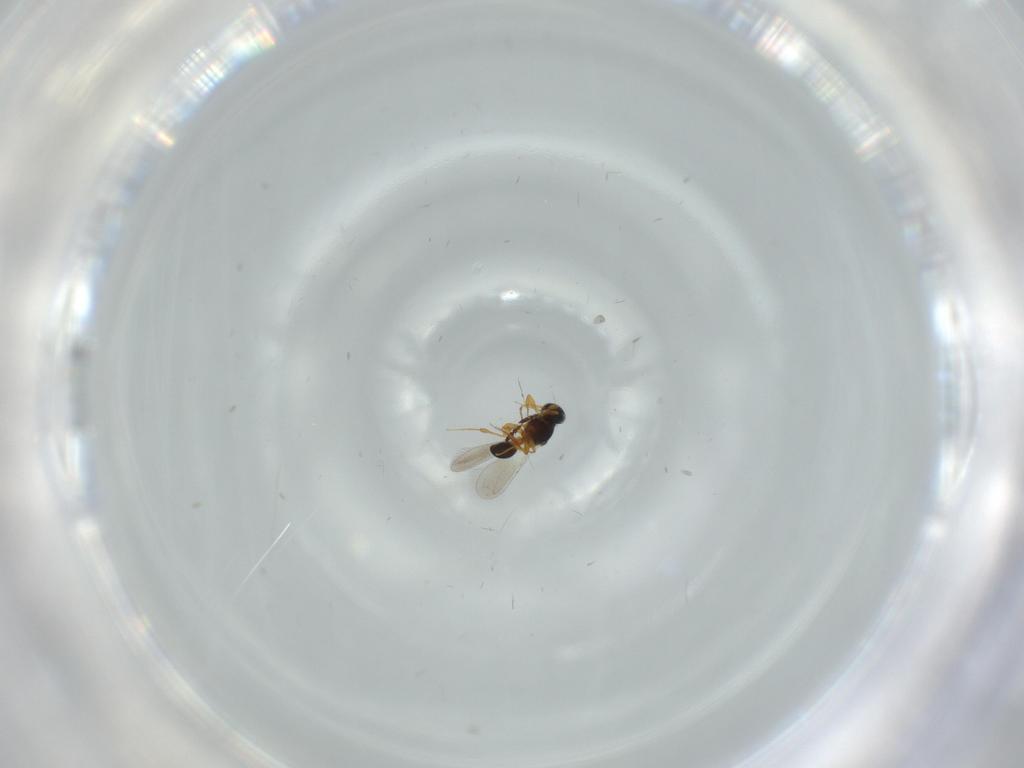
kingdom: Animalia
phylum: Arthropoda
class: Insecta
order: Hymenoptera
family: Platygastridae
